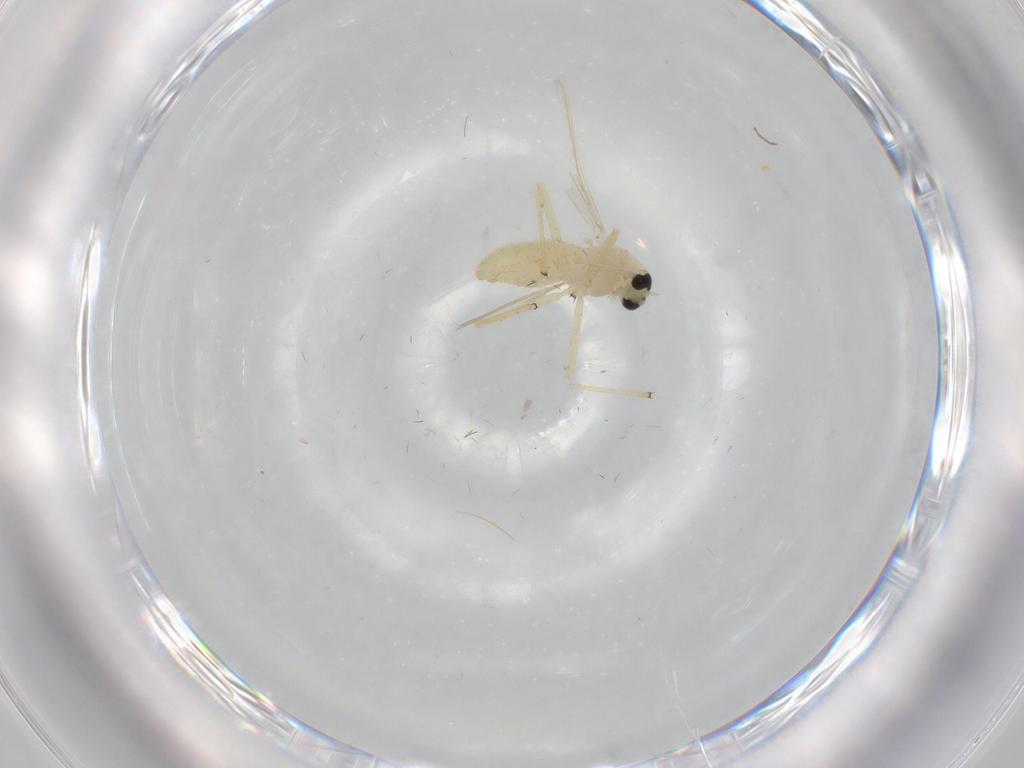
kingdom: Animalia
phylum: Arthropoda
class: Insecta
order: Diptera
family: Chironomidae
